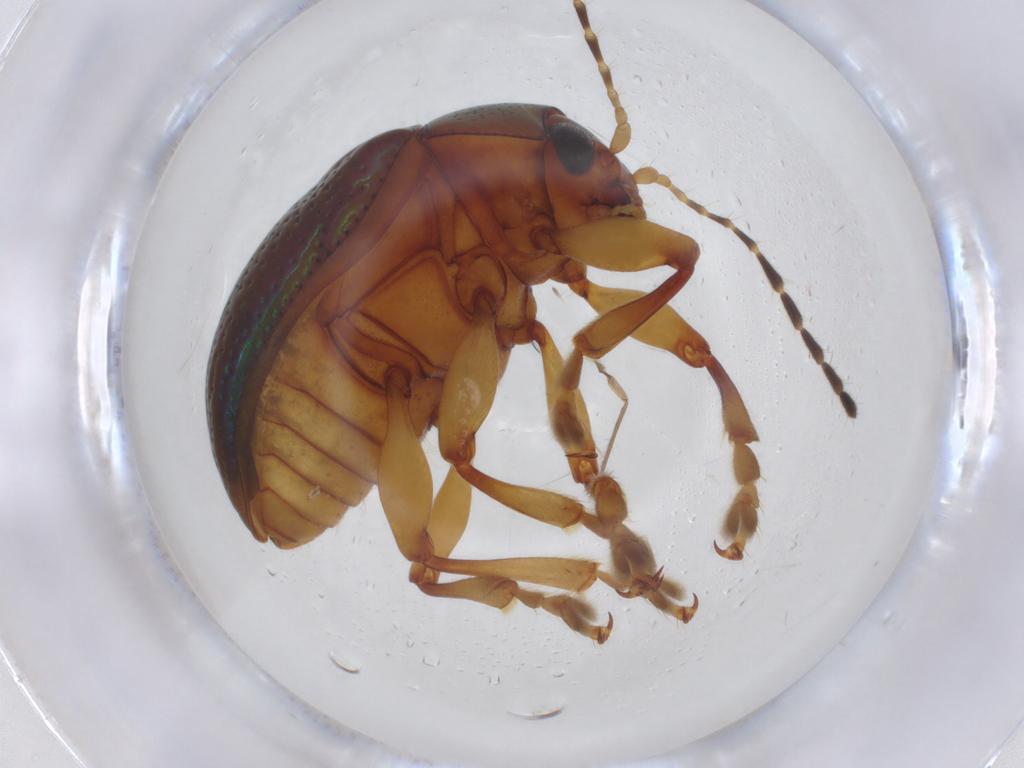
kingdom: Animalia
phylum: Arthropoda
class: Insecta
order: Coleoptera
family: Chrysomelidae
